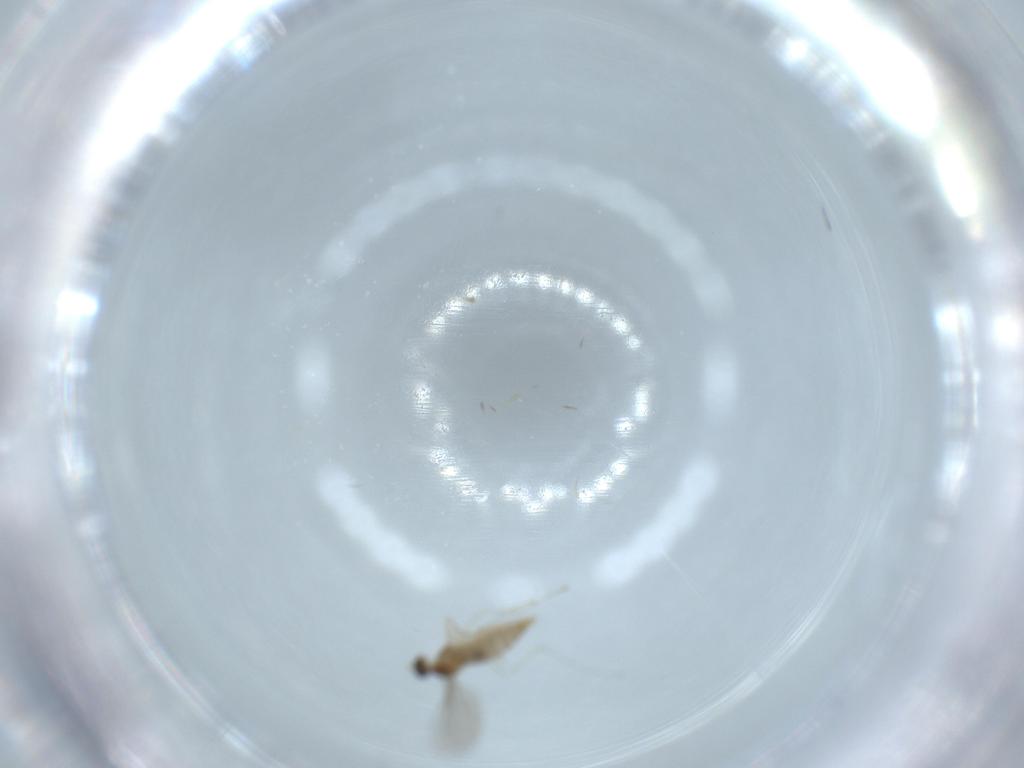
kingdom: Animalia
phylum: Arthropoda
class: Insecta
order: Diptera
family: Cecidomyiidae
